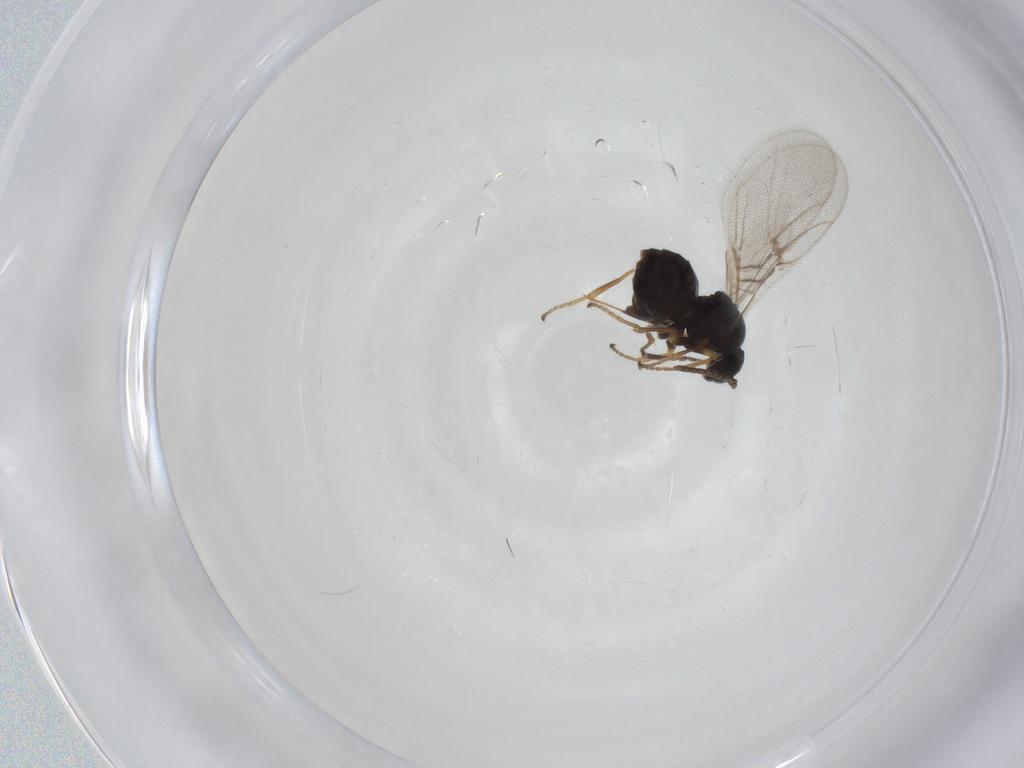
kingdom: Animalia
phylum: Arthropoda
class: Insecta
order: Hymenoptera
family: Cynipidae
